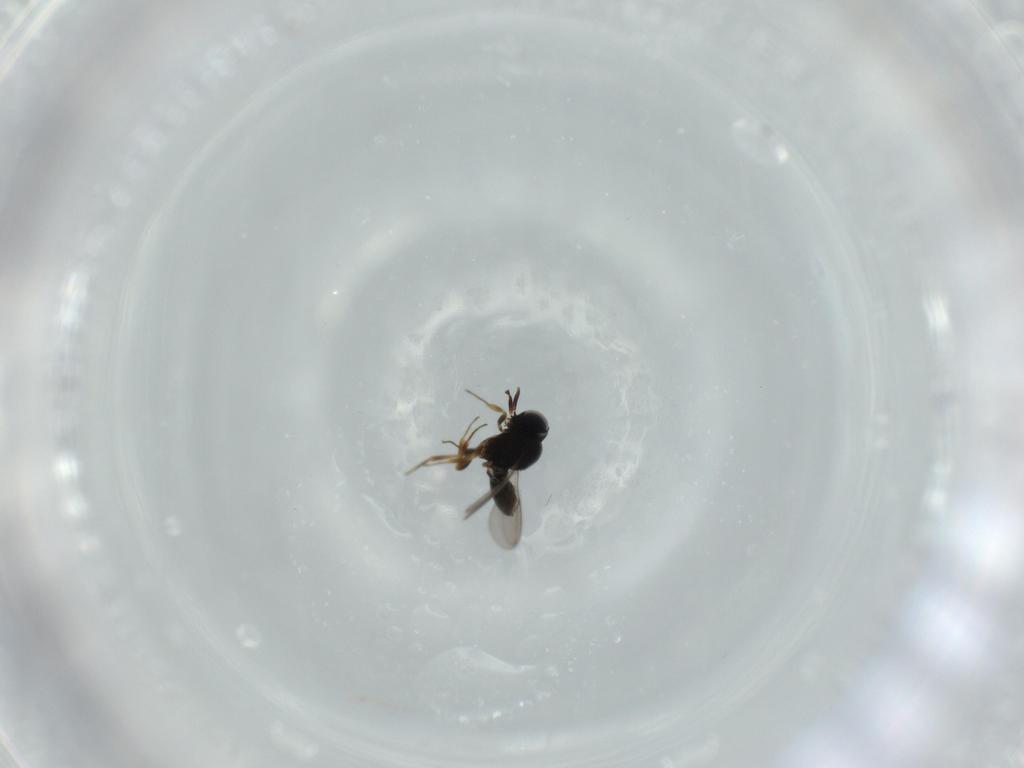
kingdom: Animalia
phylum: Arthropoda
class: Insecta
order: Hymenoptera
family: Scelionidae
